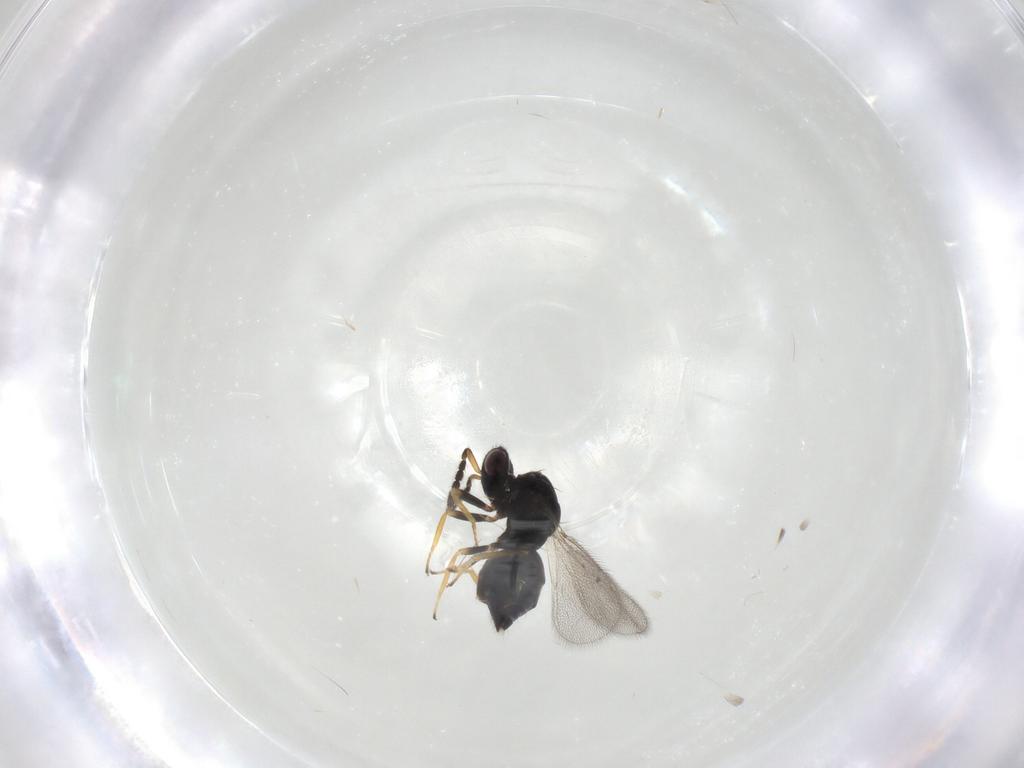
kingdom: Animalia
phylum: Arthropoda
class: Insecta
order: Hymenoptera
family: Eulophidae
